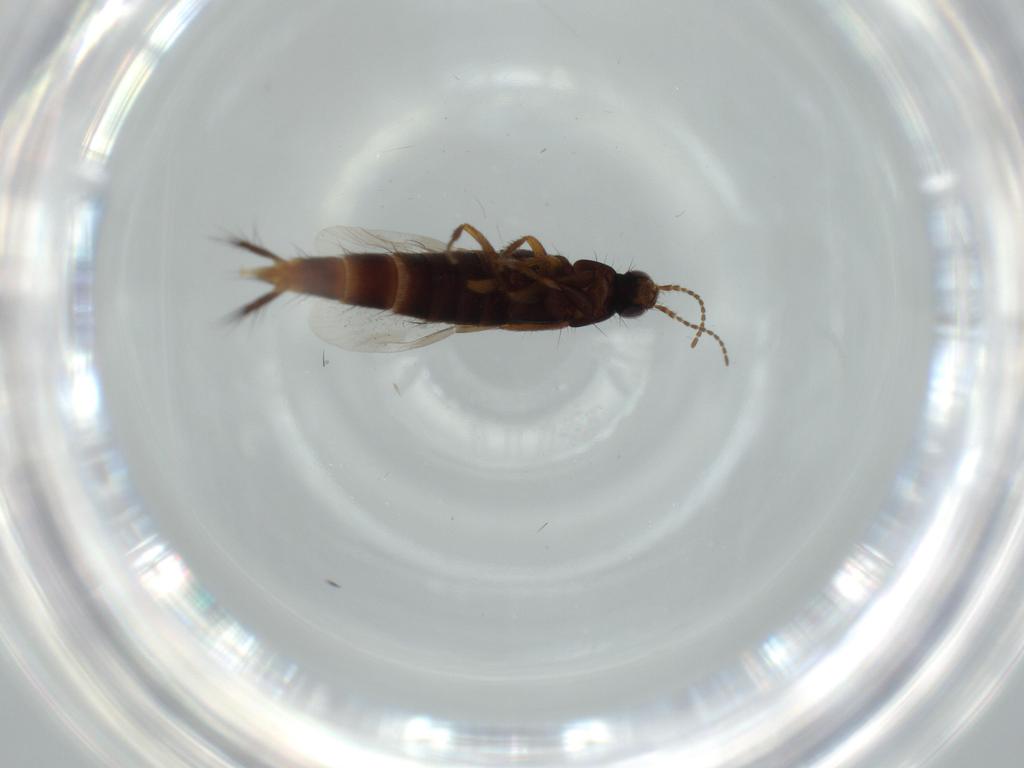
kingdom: Animalia
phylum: Arthropoda
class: Insecta
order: Coleoptera
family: Staphylinidae
